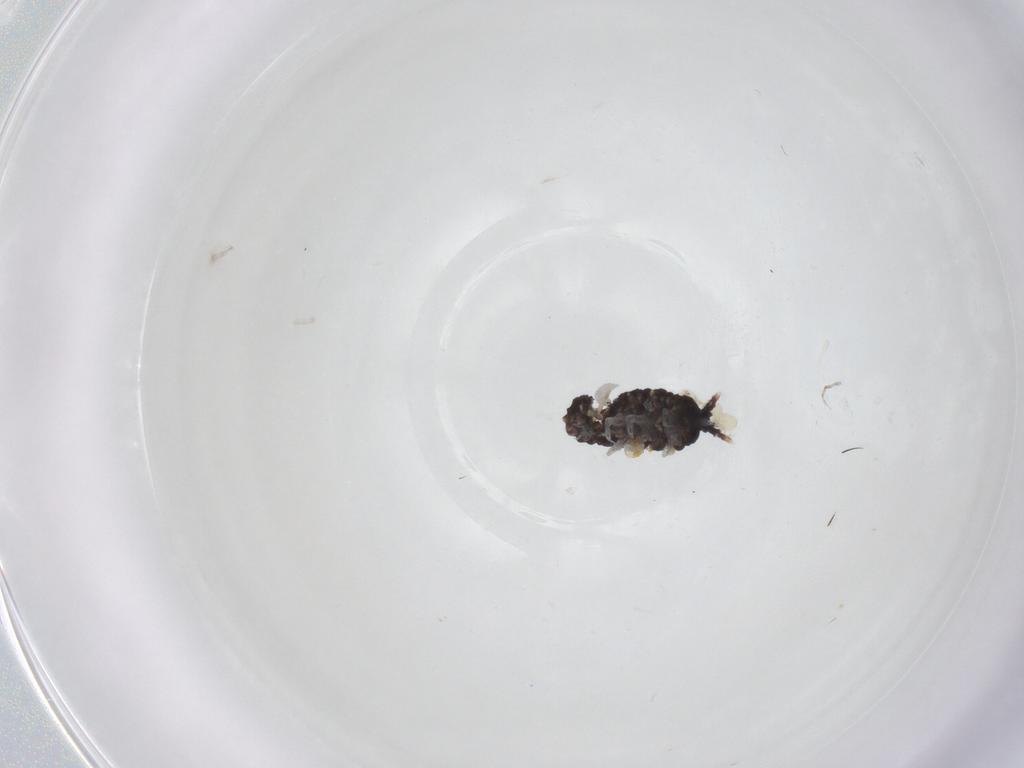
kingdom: Animalia
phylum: Arthropoda
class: Collembola
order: Poduromorpha
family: Neanuridae
